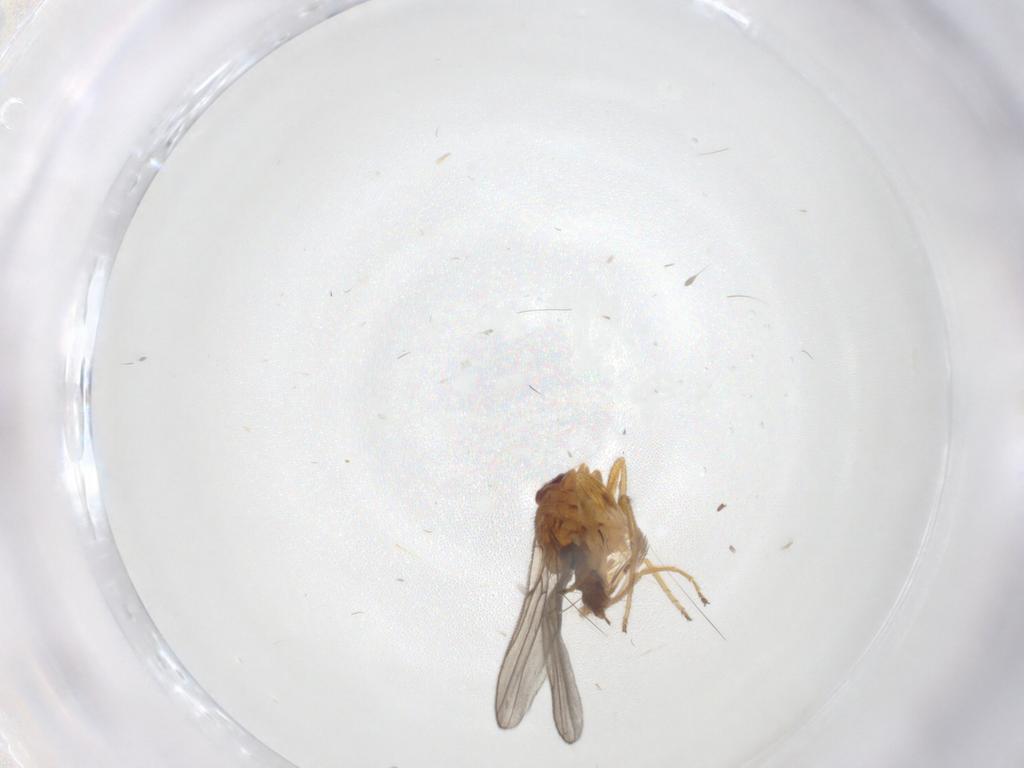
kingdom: Animalia
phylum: Arthropoda
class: Insecta
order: Diptera
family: Chloropidae
